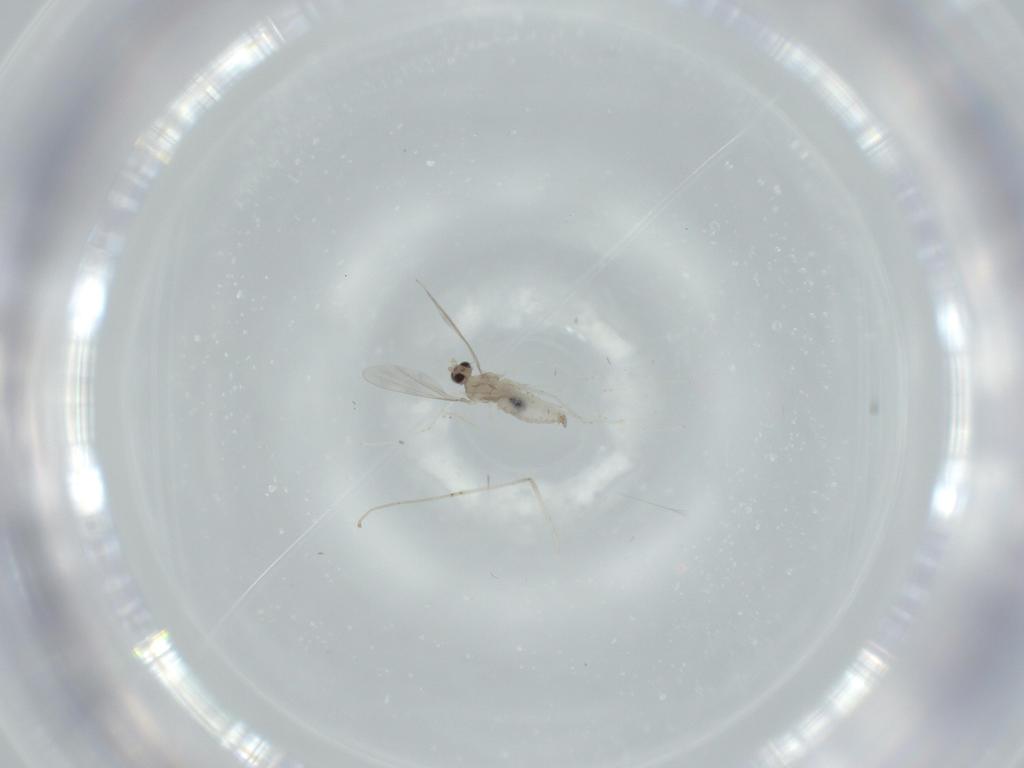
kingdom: Animalia
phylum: Arthropoda
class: Insecta
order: Diptera
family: Cecidomyiidae
